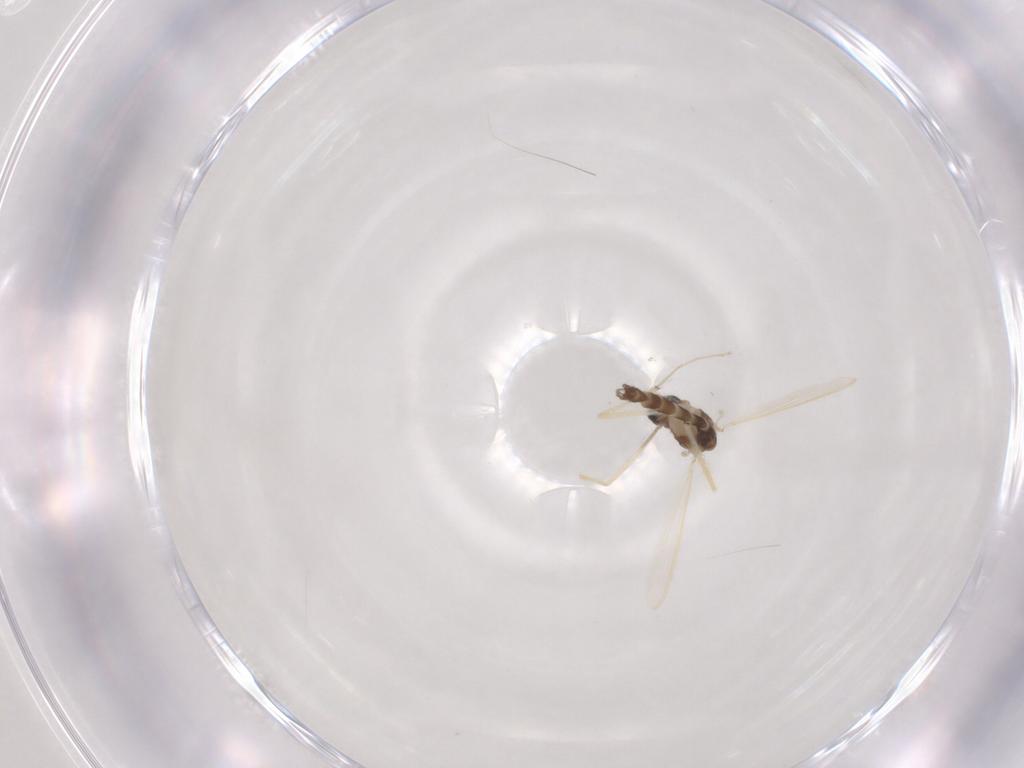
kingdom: Animalia
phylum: Arthropoda
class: Insecta
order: Diptera
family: Chironomidae
